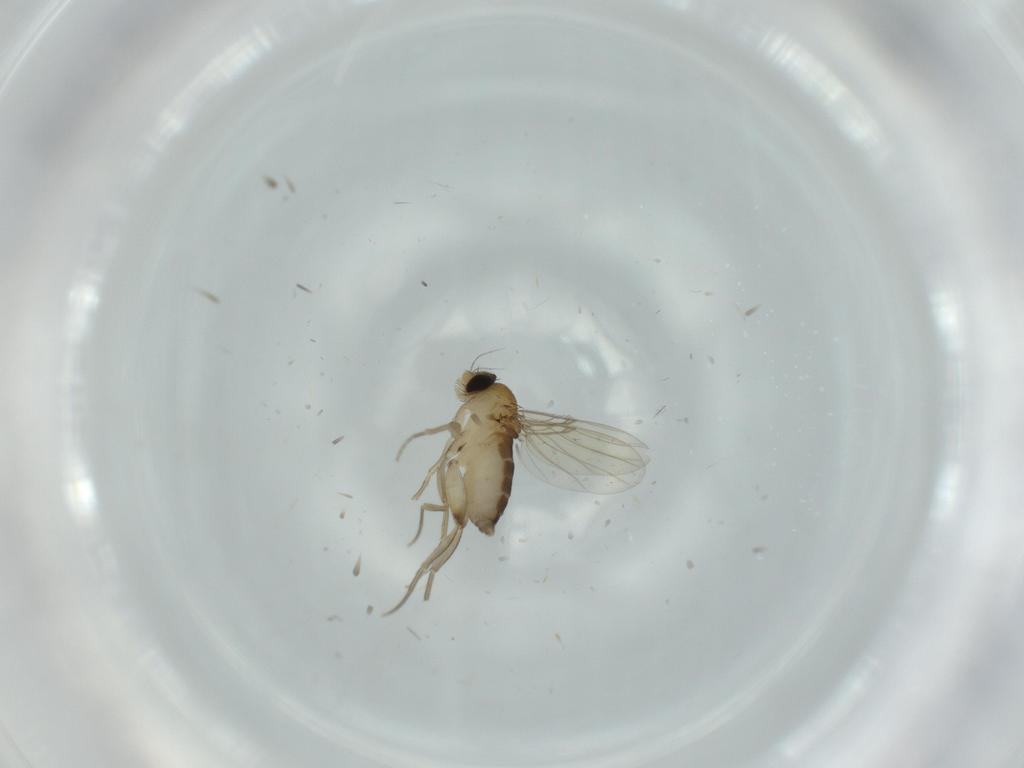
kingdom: Animalia
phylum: Arthropoda
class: Insecta
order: Diptera
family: Phoridae
